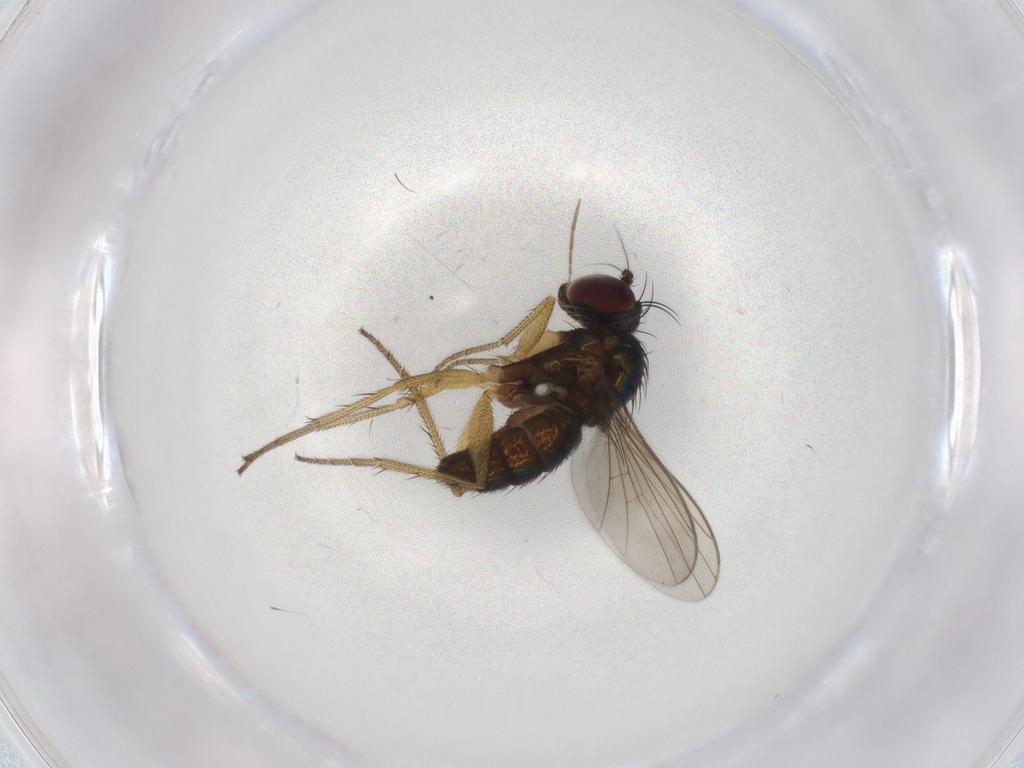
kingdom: Animalia
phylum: Arthropoda
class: Insecta
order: Diptera
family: Chironomidae
